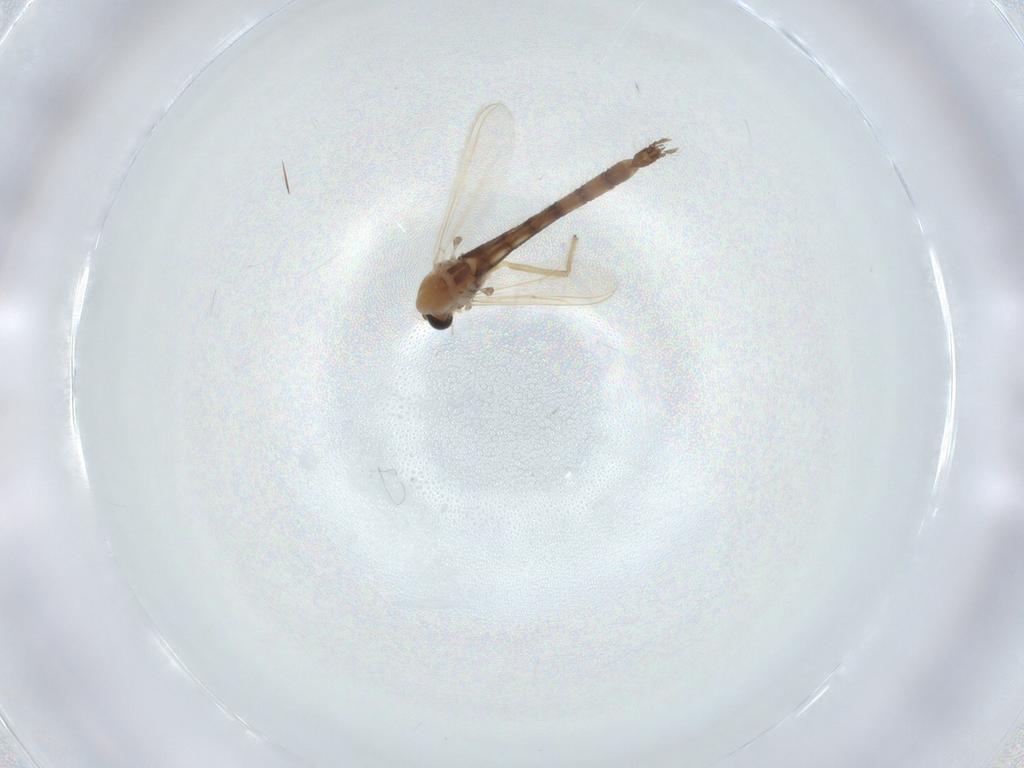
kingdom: Animalia
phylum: Arthropoda
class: Insecta
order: Diptera
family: Chironomidae
